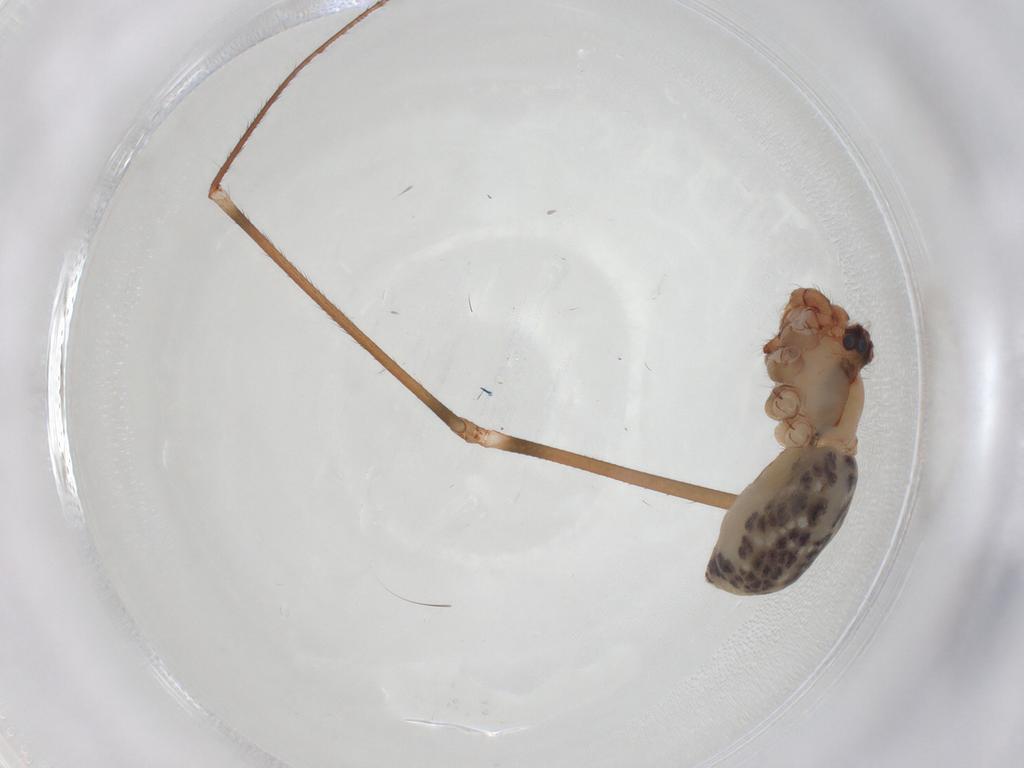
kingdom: Animalia
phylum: Arthropoda
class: Arachnida
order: Araneae
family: Pholcidae
